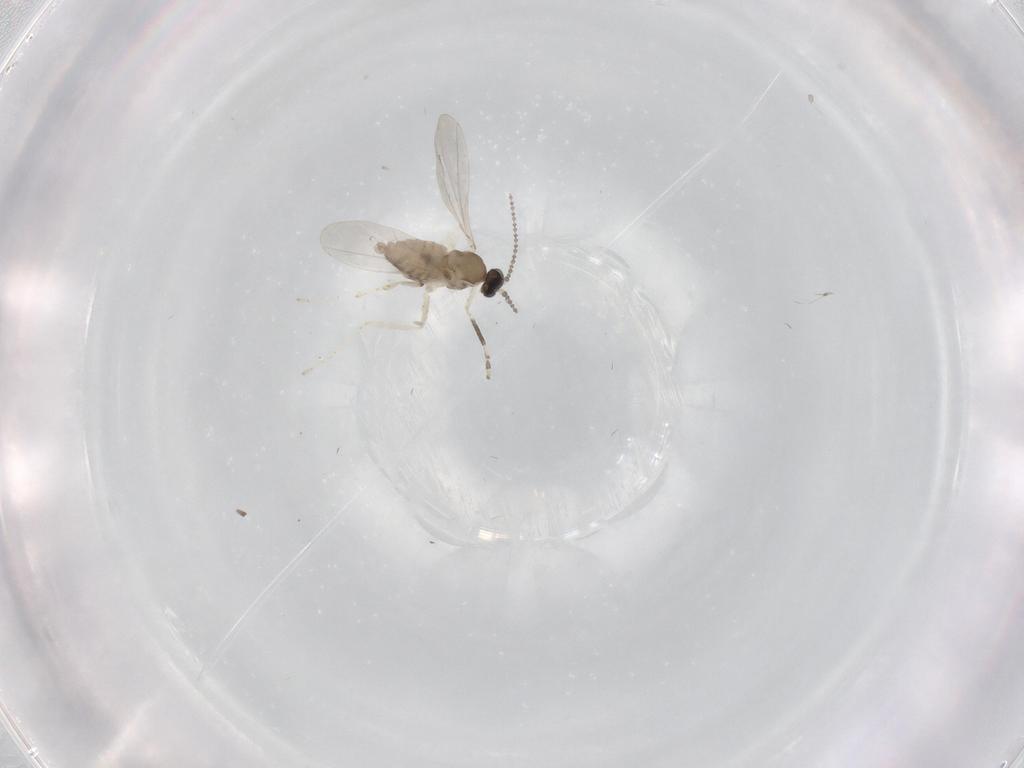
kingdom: Animalia
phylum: Arthropoda
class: Insecta
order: Diptera
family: Cecidomyiidae
